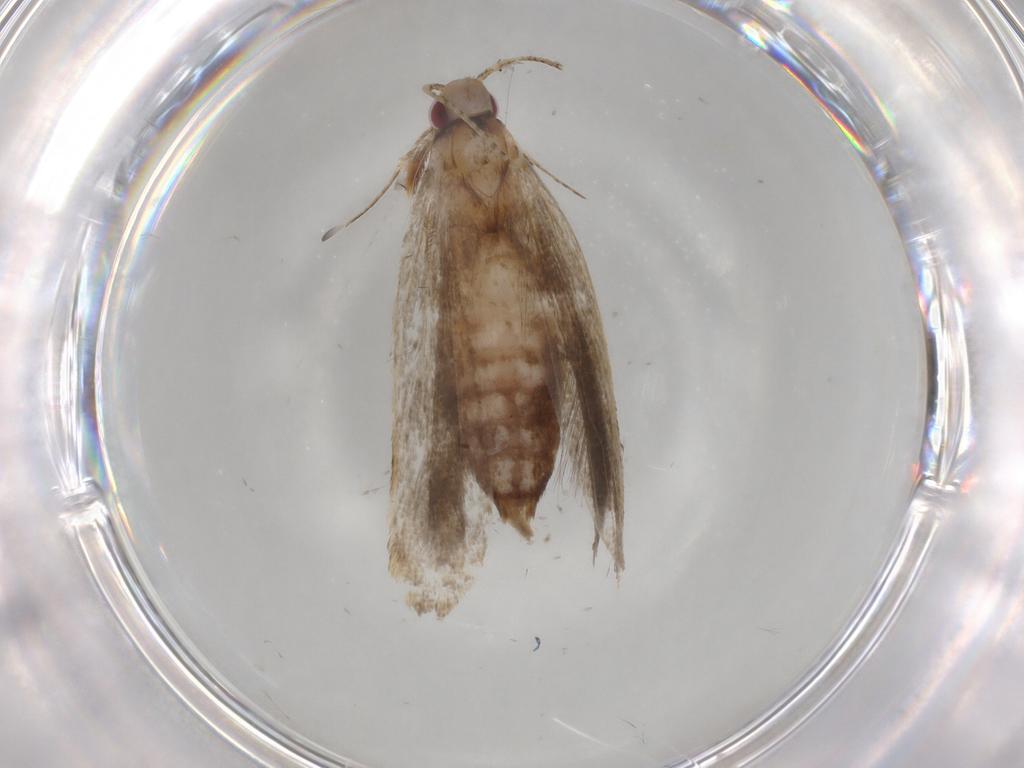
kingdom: Animalia
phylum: Arthropoda
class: Insecta
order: Lepidoptera
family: Gelechiidae
